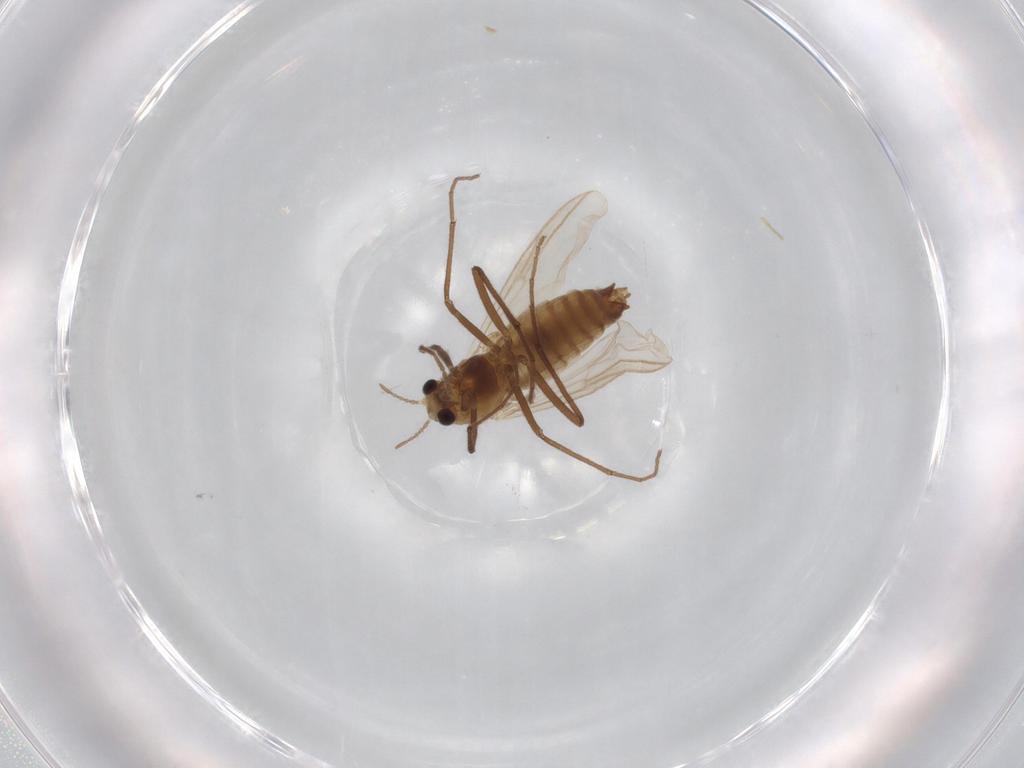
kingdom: Animalia
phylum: Arthropoda
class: Insecta
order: Diptera
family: Chironomidae
